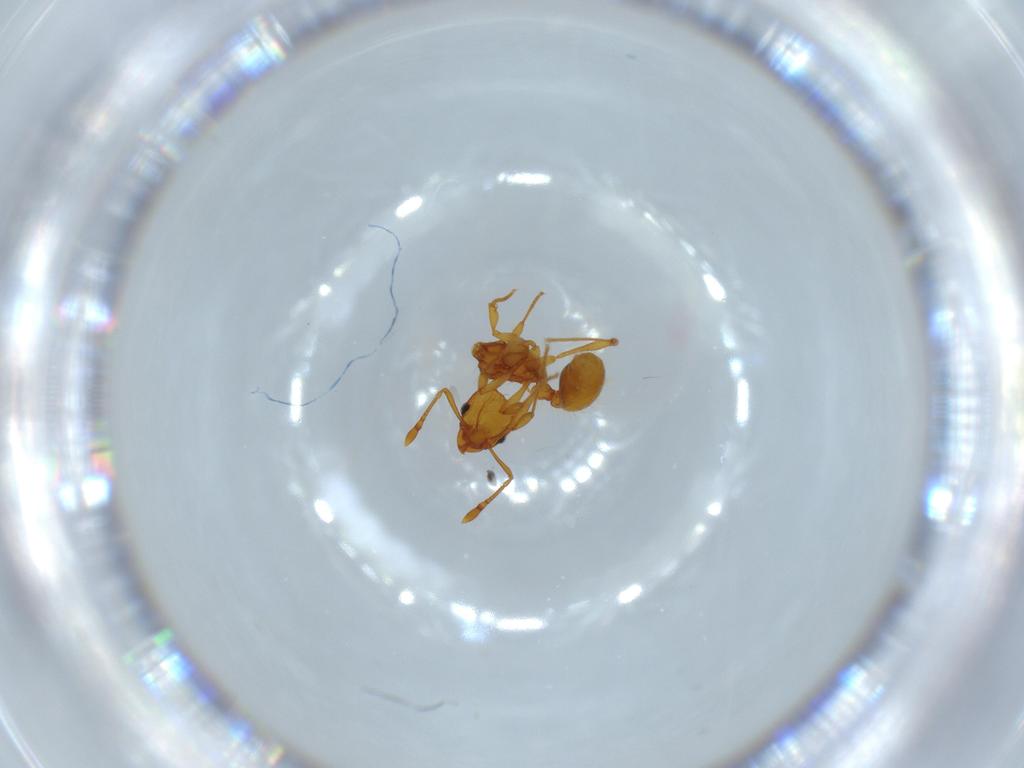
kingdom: Animalia
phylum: Arthropoda
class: Insecta
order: Hymenoptera
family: Formicidae
